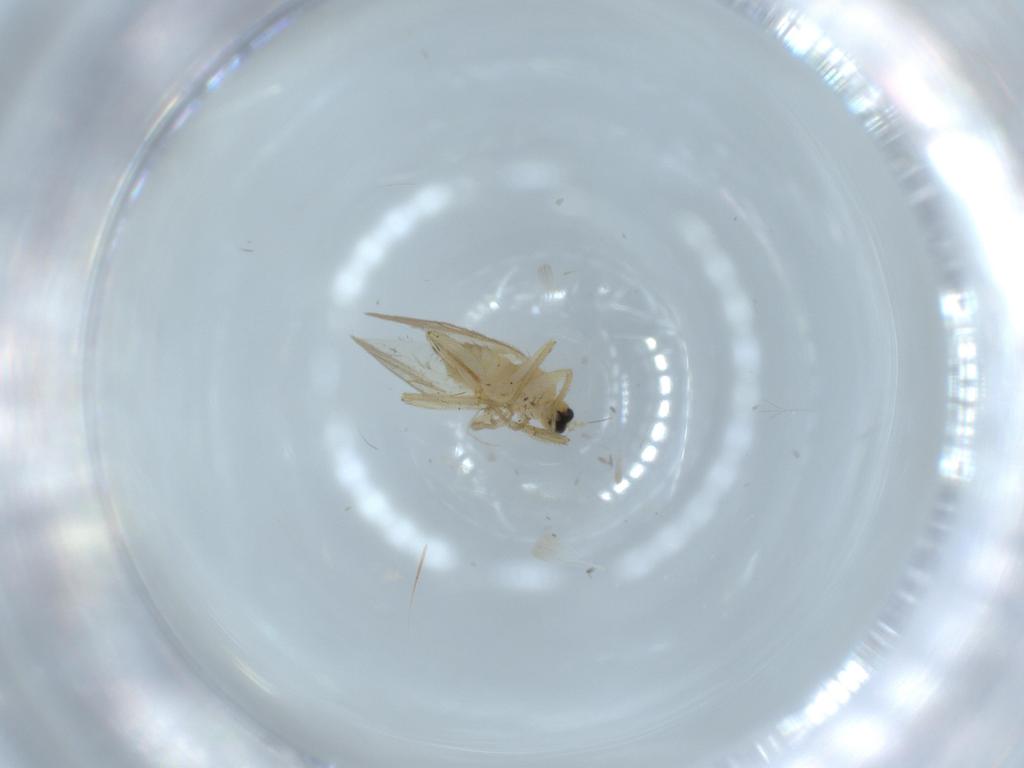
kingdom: Animalia
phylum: Arthropoda
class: Insecta
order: Diptera
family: Hybotidae
